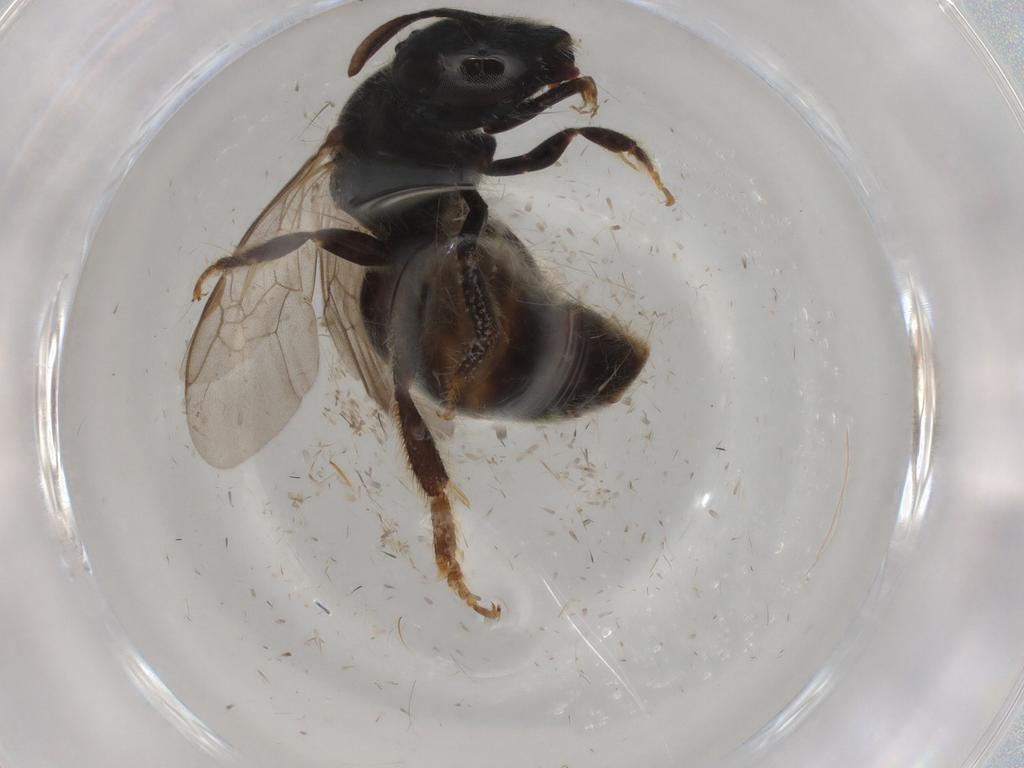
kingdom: Animalia
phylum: Arthropoda
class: Insecta
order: Hymenoptera
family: Apidae
